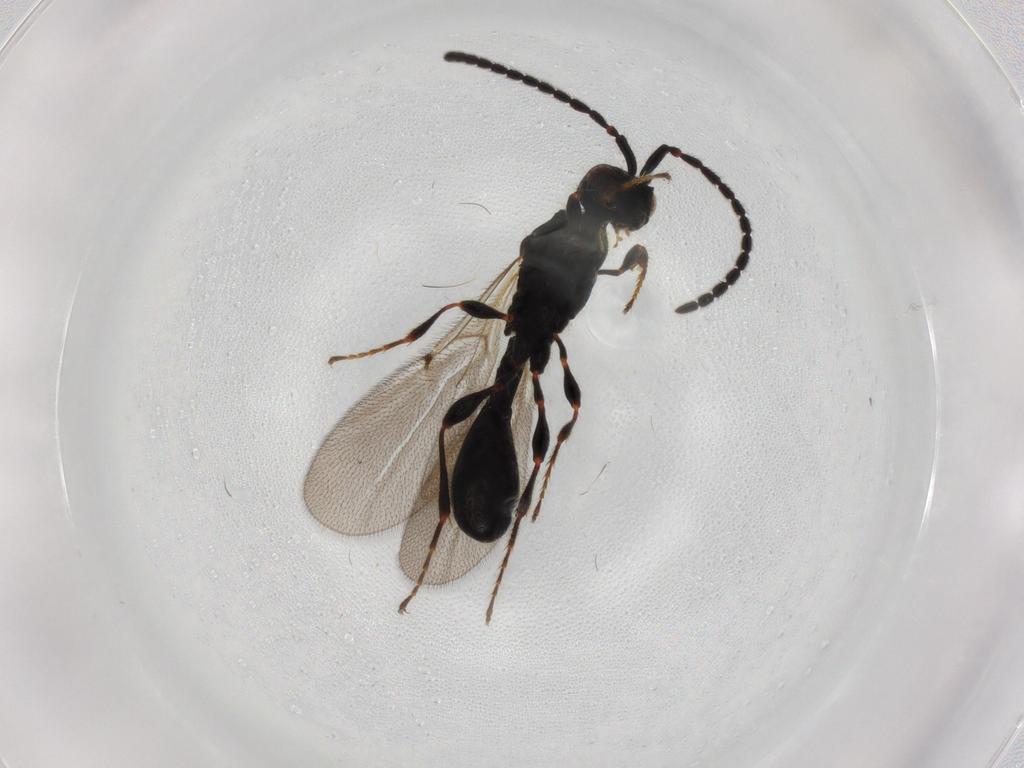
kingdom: Animalia
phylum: Arthropoda
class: Insecta
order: Hymenoptera
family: Diapriidae
